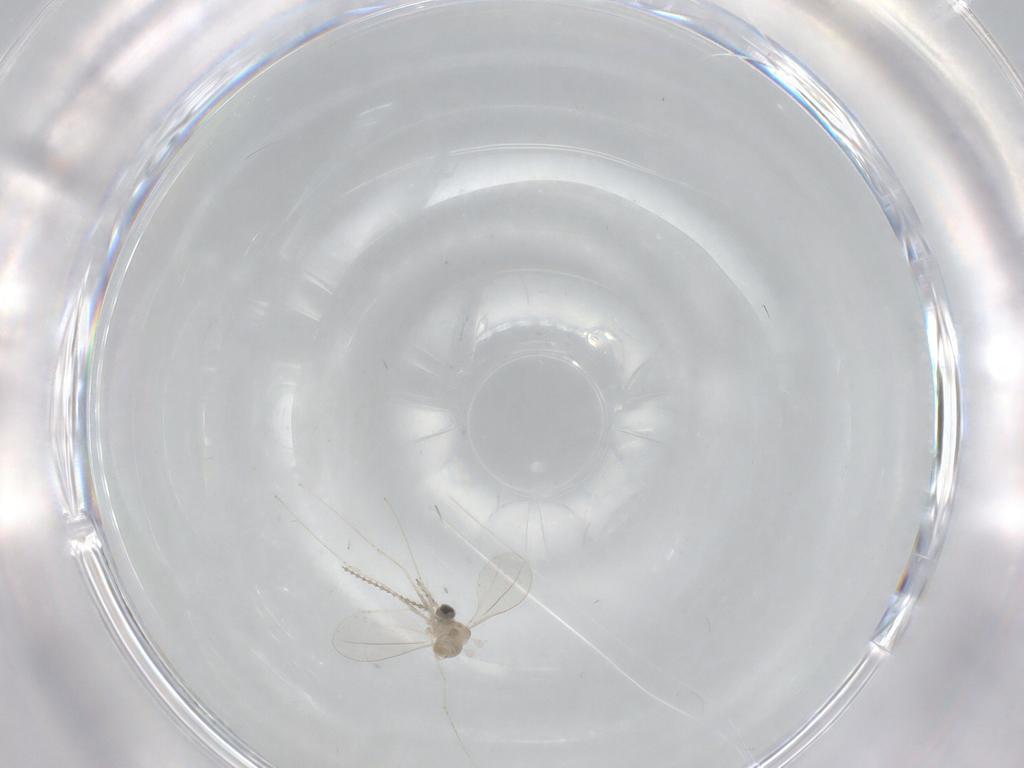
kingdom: Animalia
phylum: Arthropoda
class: Insecta
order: Diptera
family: Cecidomyiidae
